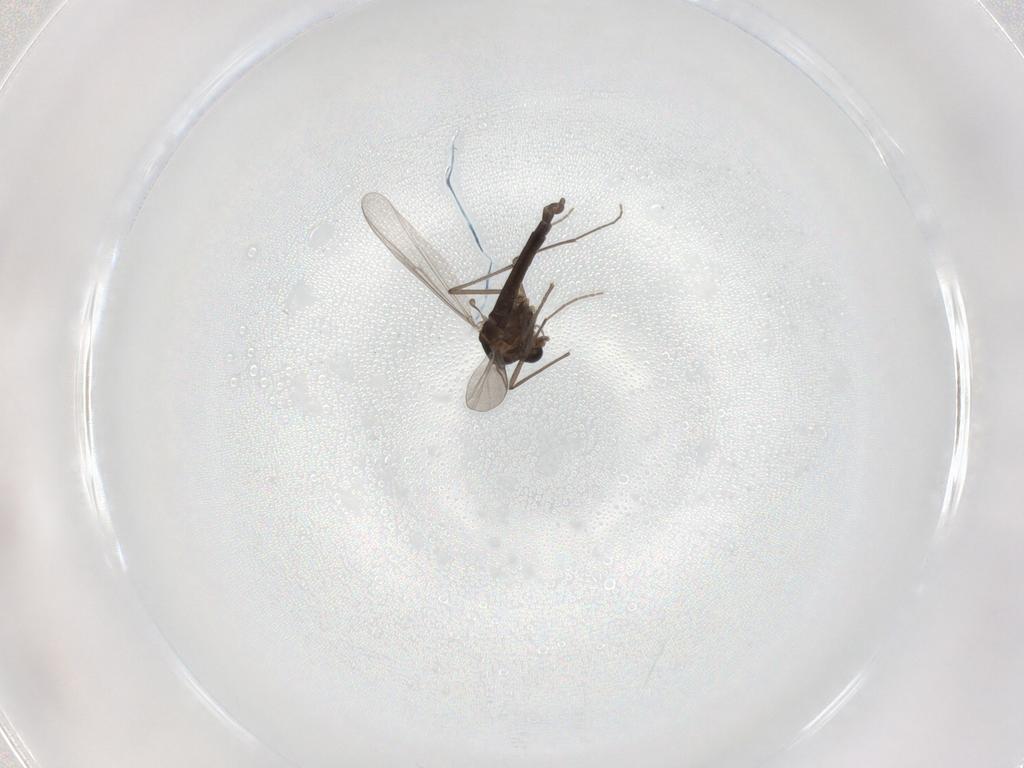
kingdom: Animalia
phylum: Arthropoda
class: Insecta
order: Diptera
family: Chironomidae
